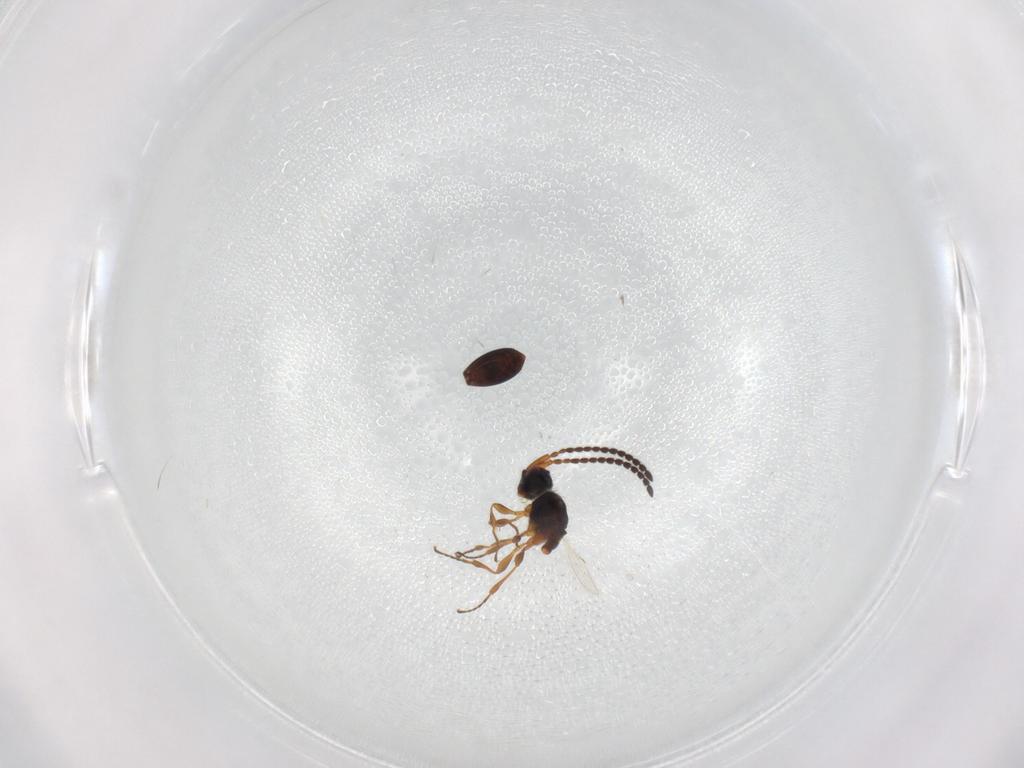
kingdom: Animalia
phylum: Arthropoda
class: Insecta
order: Hymenoptera
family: Diapriidae
